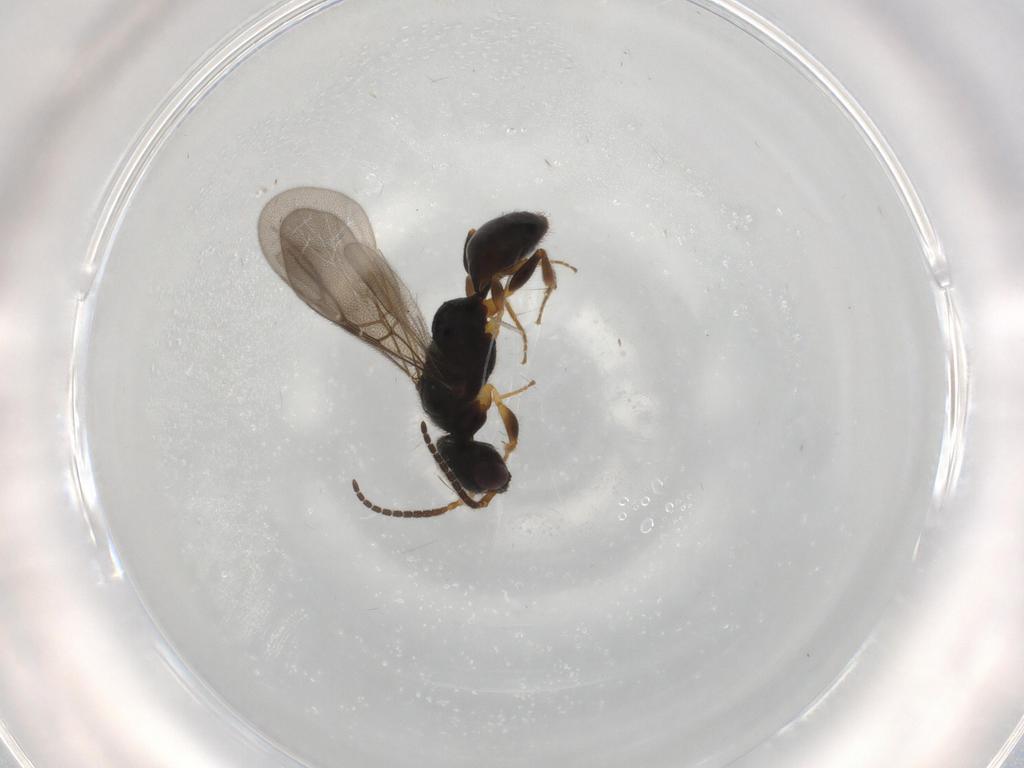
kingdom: Animalia
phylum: Arthropoda
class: Insecta
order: Hymenoptera
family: Bethylidae
